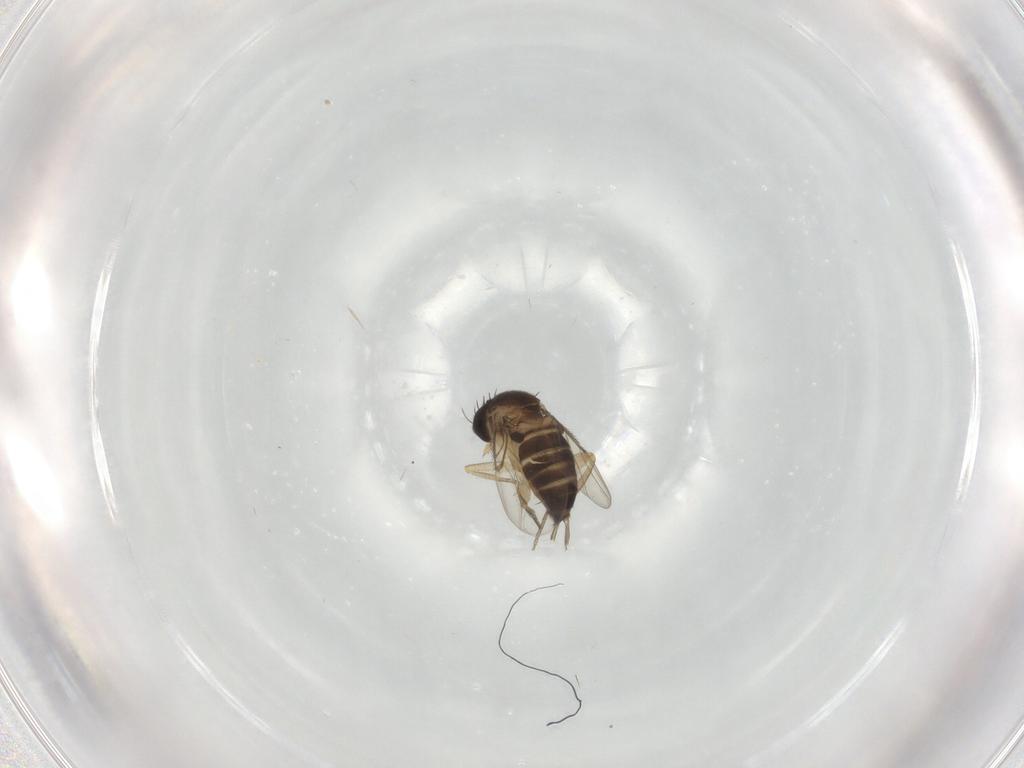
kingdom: Animalia
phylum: Arthropoda
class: Insecta
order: Diptera
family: Psychodidae
